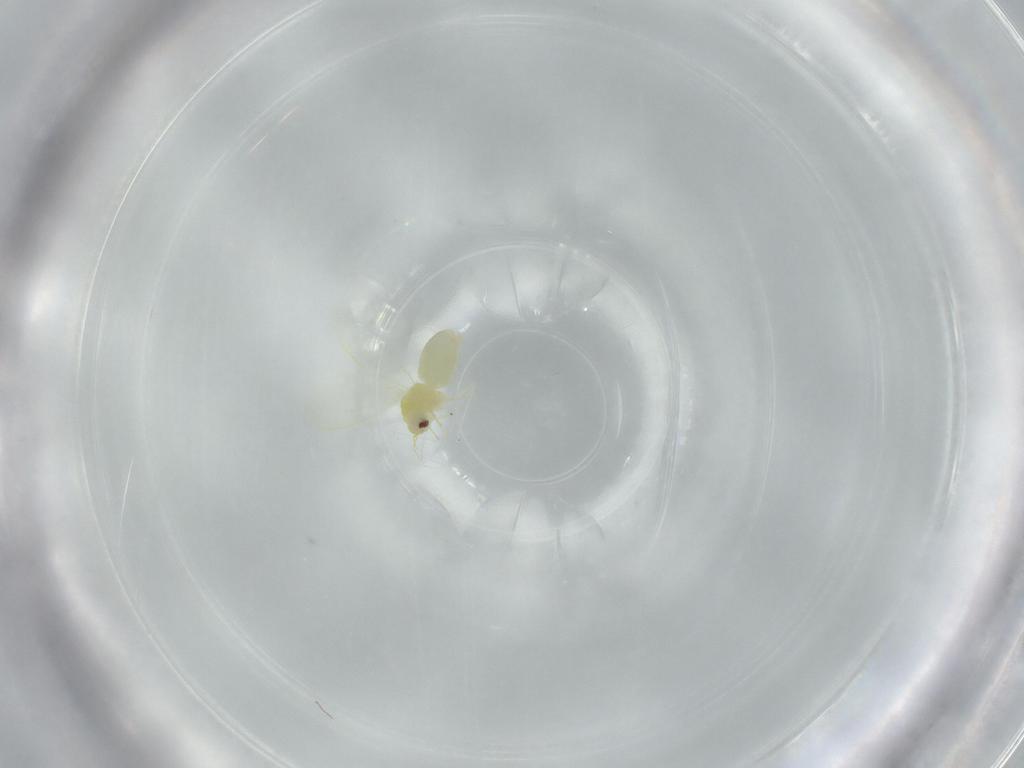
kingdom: Animalia
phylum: Arthropoda
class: Insecta
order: Hemiptera
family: Aleyrodidae
